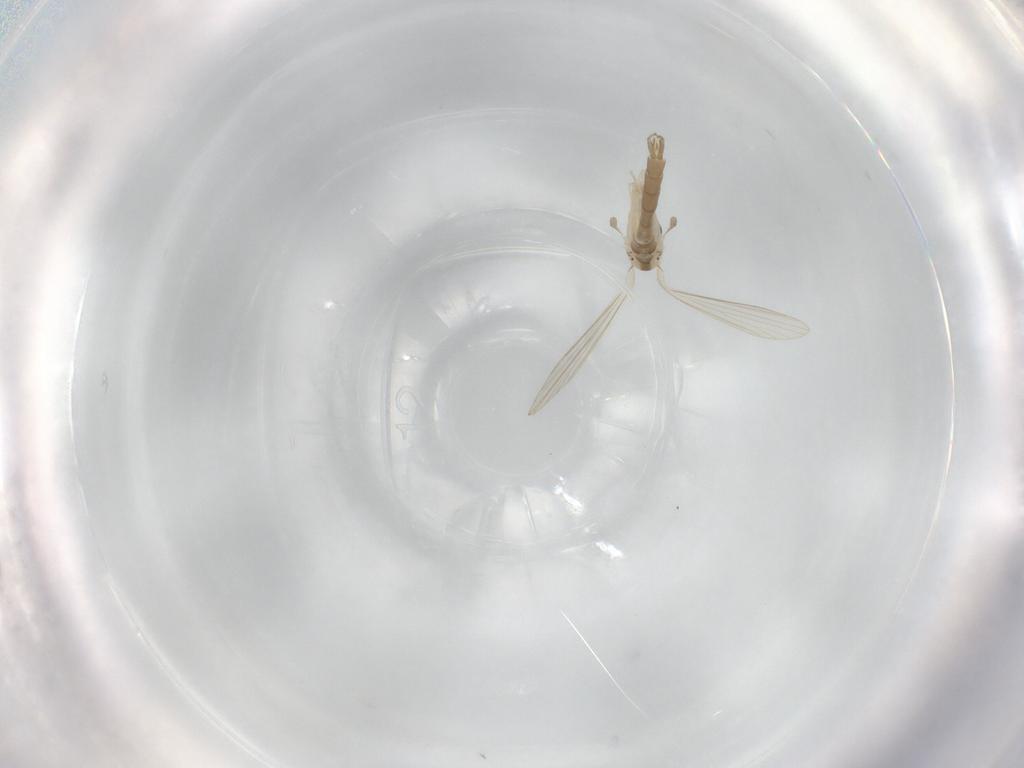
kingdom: Animalia
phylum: Arthropoda
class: Insecta
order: Diptera
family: Psychodidae
